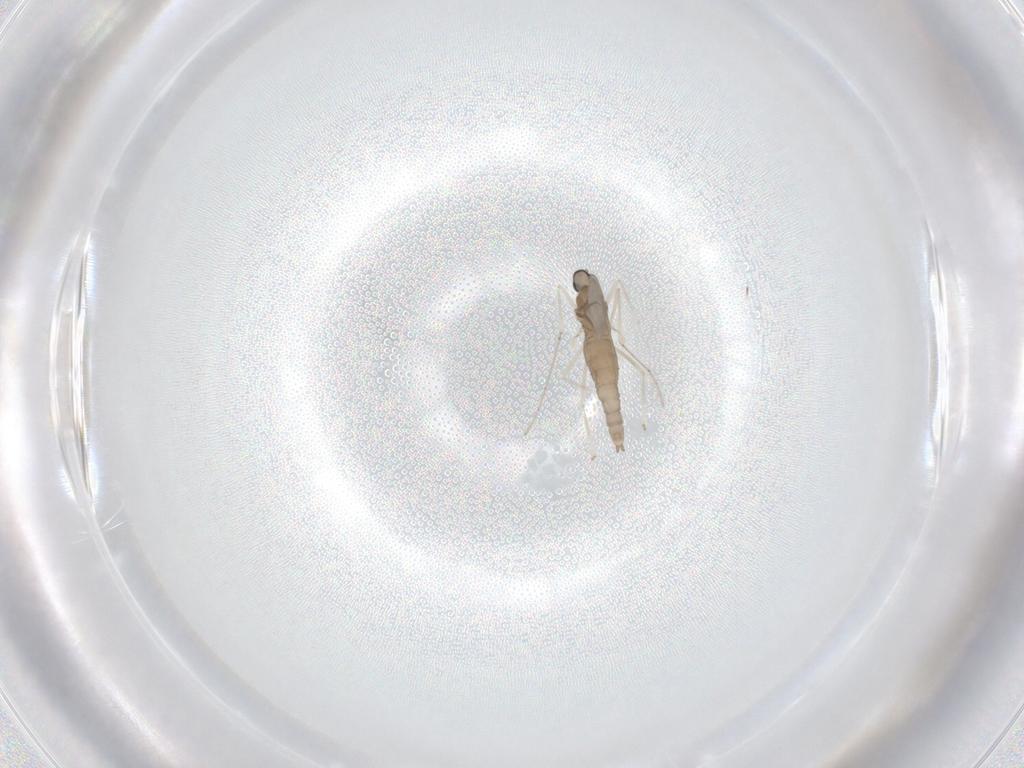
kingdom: Animalia
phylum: Arthropoda
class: Insecta
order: Diptera
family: Cecidomyiidae
